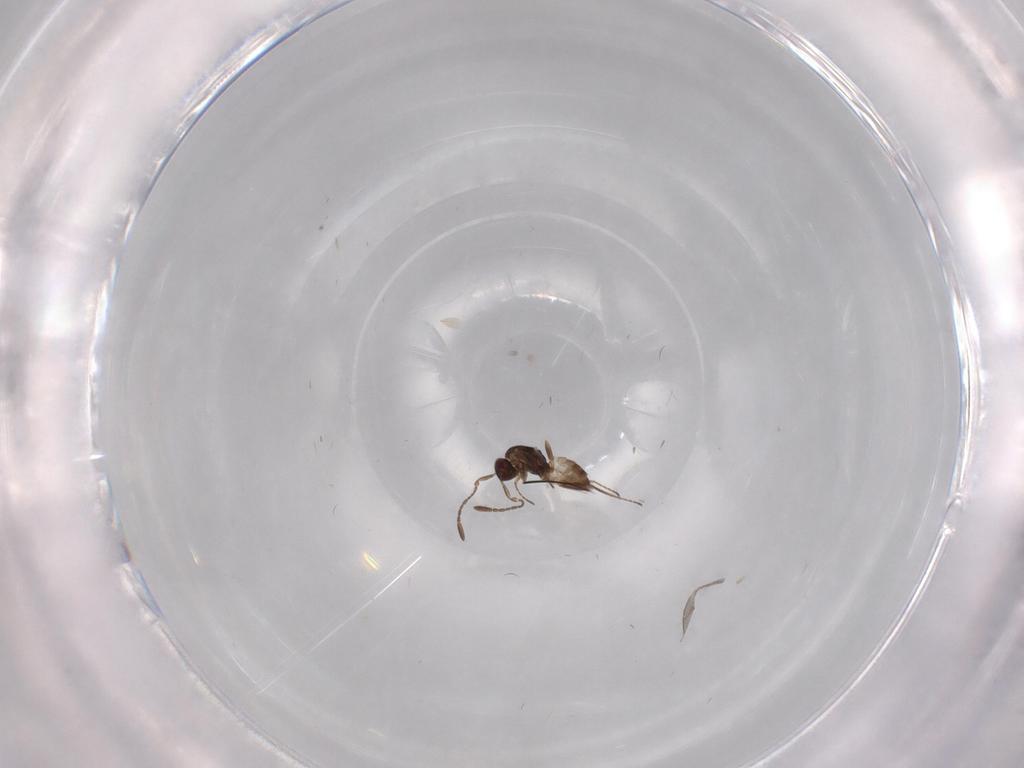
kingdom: Animalia
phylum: Arthropoda
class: Insecta
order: Hymenoptera
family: Mymaridae
